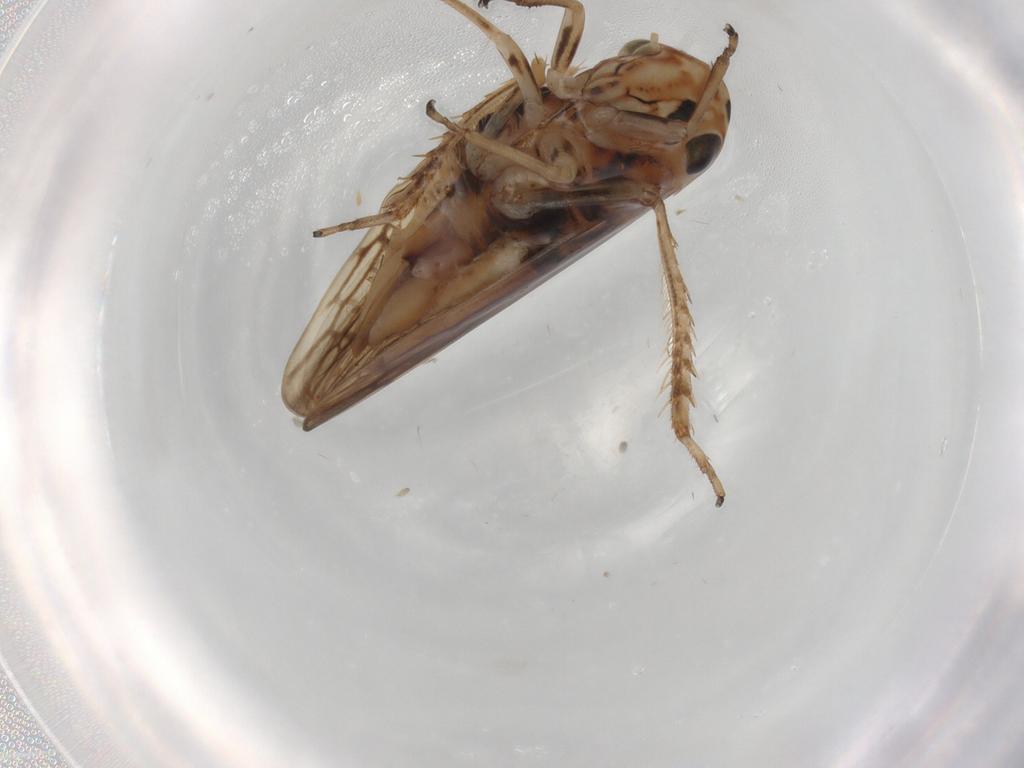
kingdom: Animalia
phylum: Arthropoda
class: Insecta
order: Hemiptera
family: Cicadellidae
